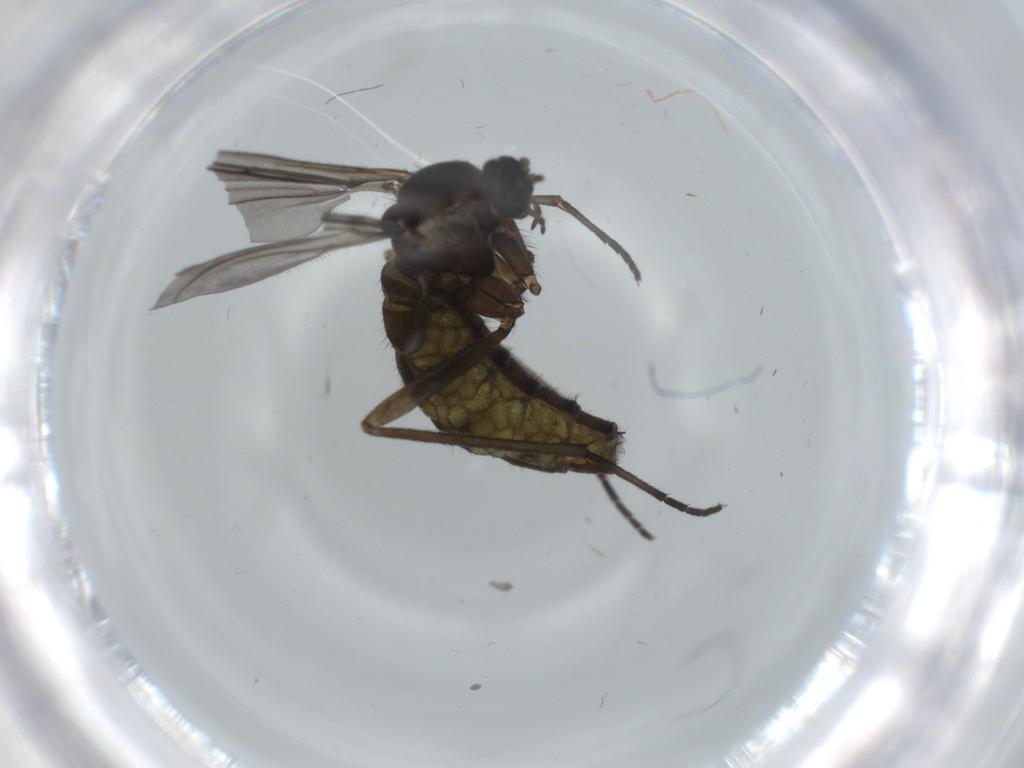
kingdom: Animalia
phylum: Arthropoda
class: Insecta
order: Diptera
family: Sciaridae
